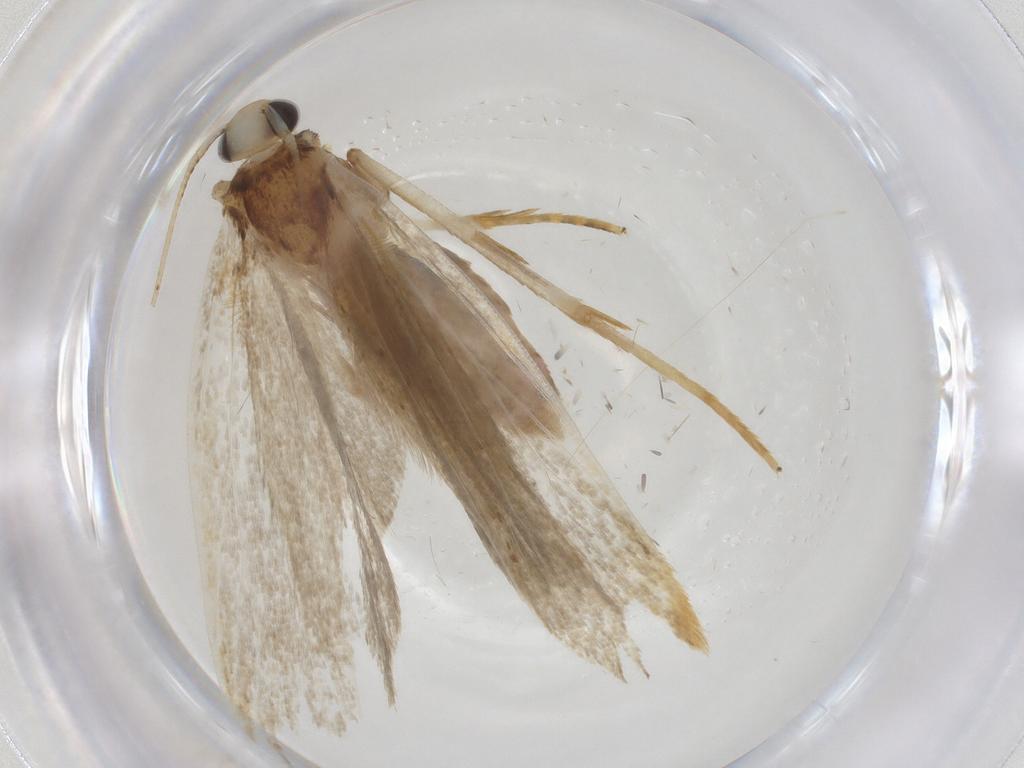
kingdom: Animalia
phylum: Arthropoda
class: Insecta
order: Lepidoptera
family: Autostichidae
